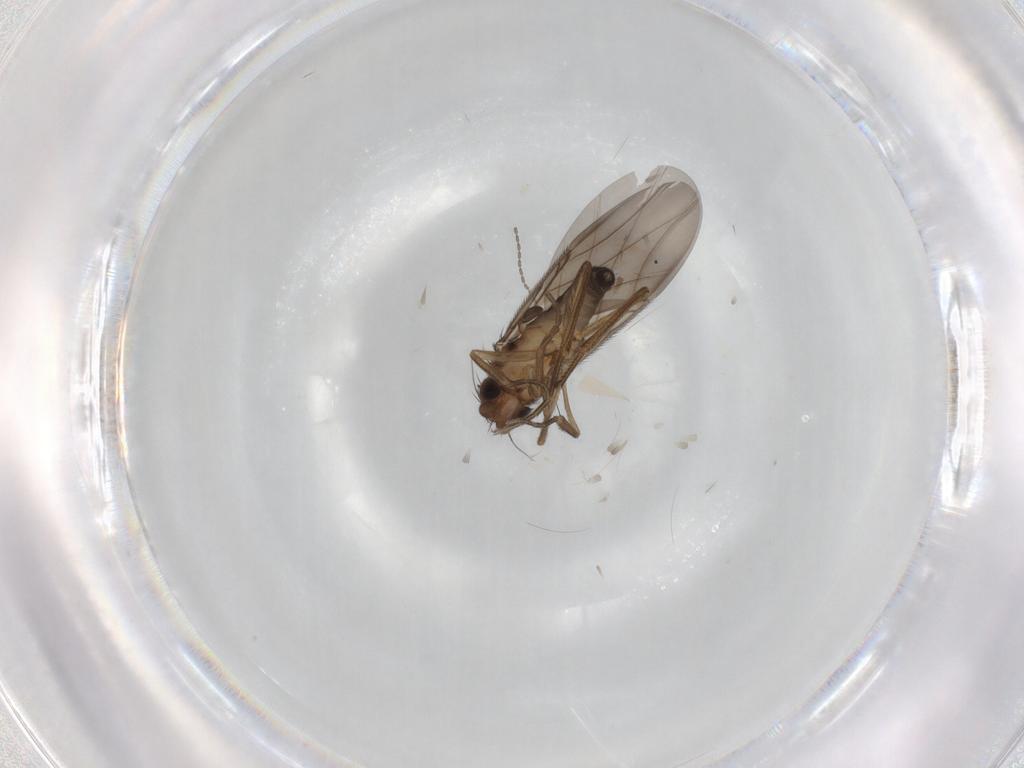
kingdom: Animalia
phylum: Arthropoda
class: Insecta
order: Diptera
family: Phoridae
